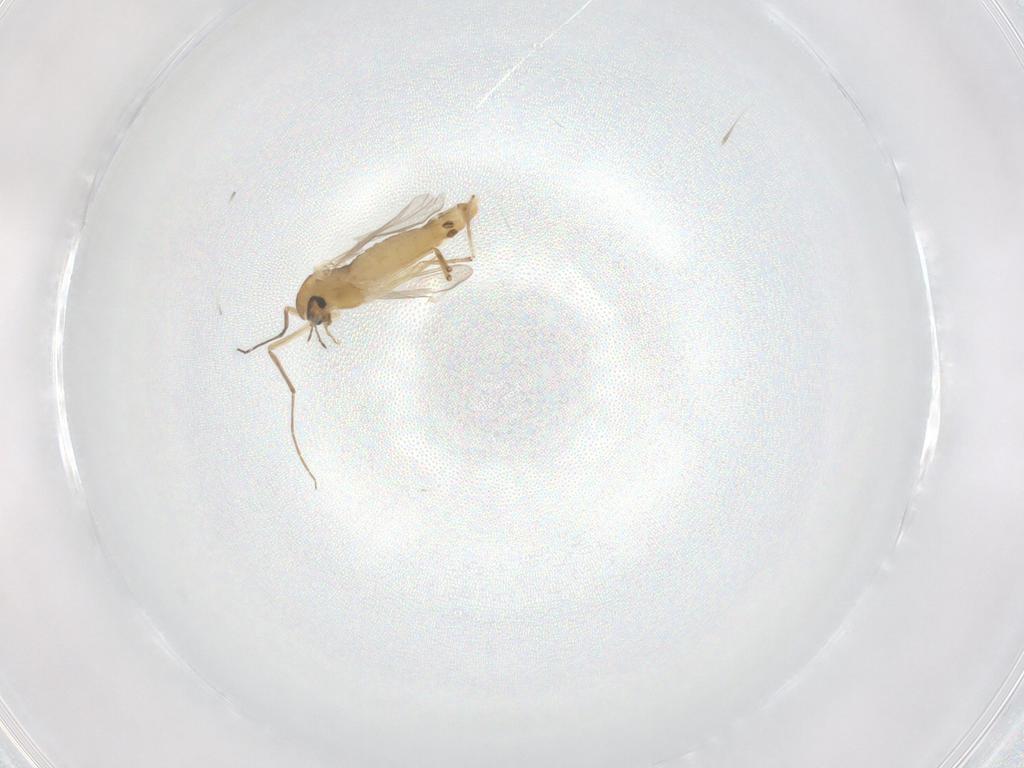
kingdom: Animalia
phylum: Arthropoda
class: Insecta
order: Diptera
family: Chironomidae
